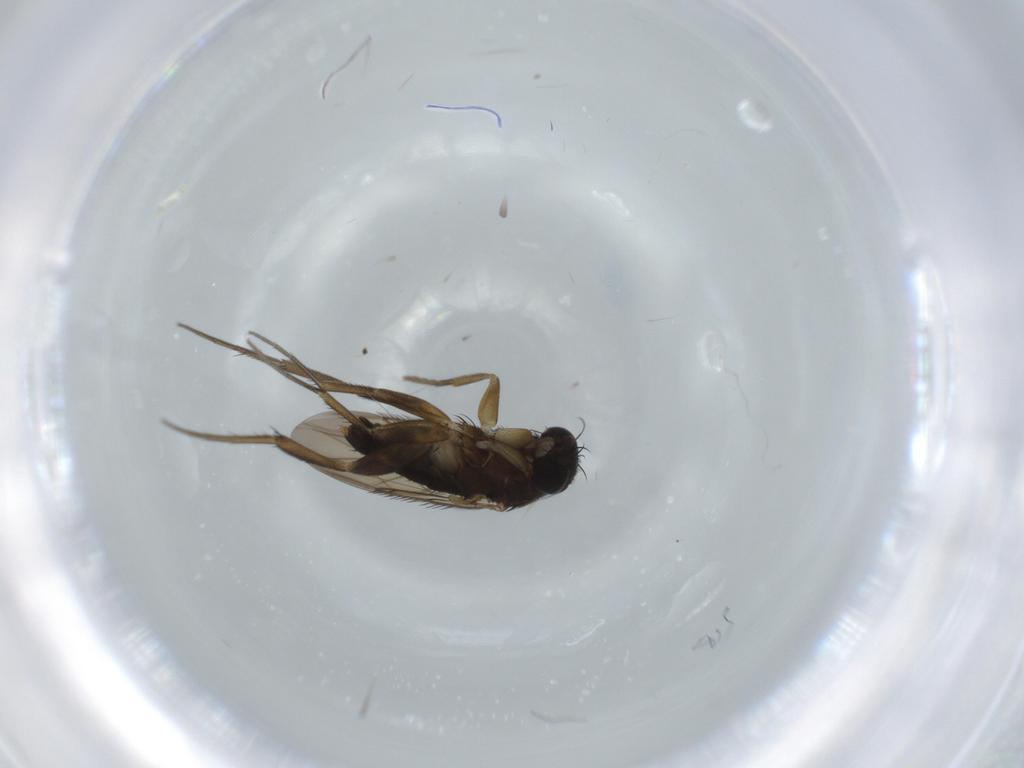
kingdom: Animalia
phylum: Arthropoda
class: Insecta
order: Diptera
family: Phoridae
